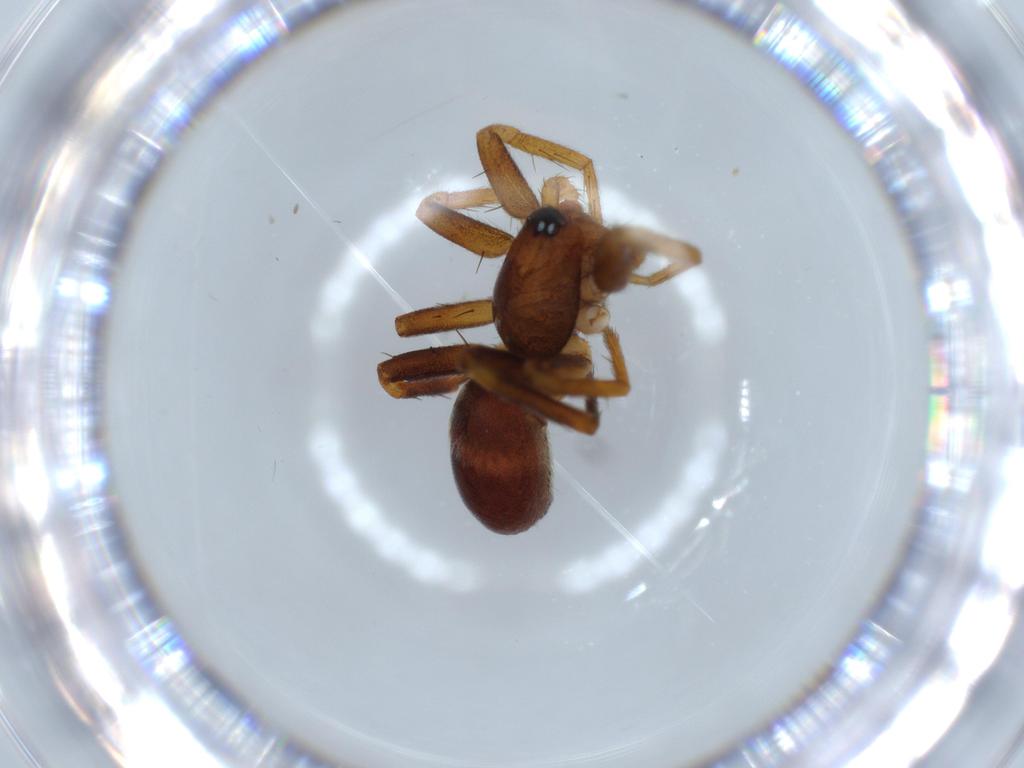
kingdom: Animalia
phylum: Arthropoda
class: Arachnida
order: Araneae
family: Corinnidae
